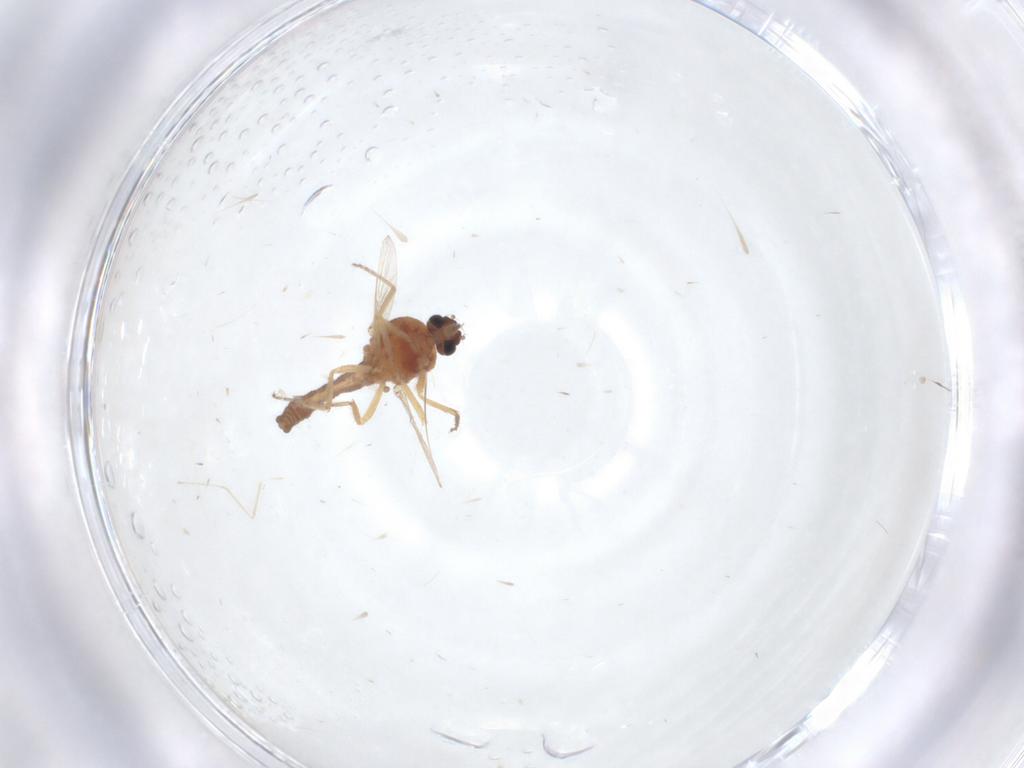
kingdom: Animalia
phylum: Arthropoda
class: Insecta
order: Diptera
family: Ceratopogonidae
